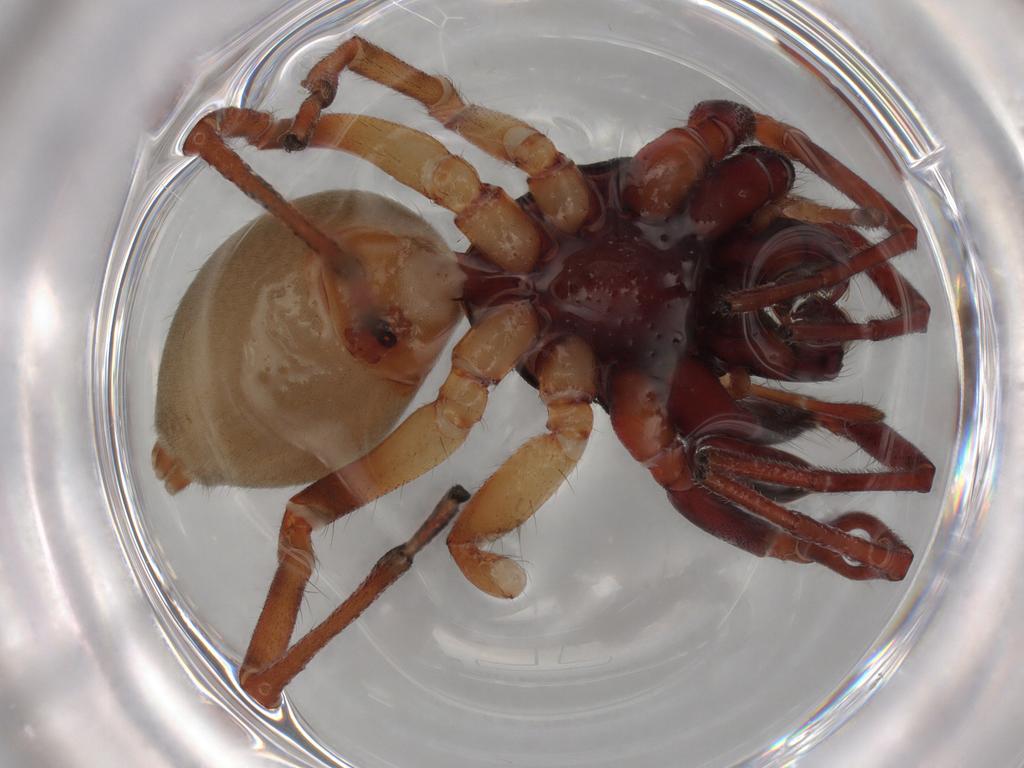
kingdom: Animalia
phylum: Arthropoda
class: Arachnida
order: Araneae
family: Trachelidae
